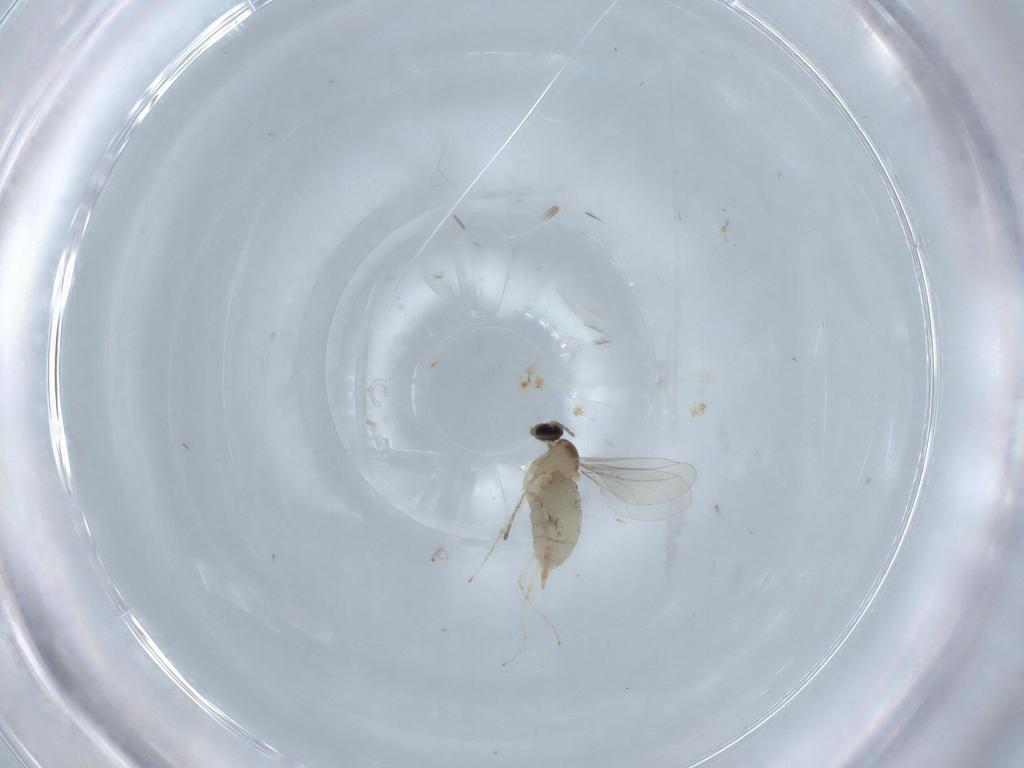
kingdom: Animalia
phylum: Arthropoda
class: Insecta
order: Diptera
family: Cecidomyiidae
